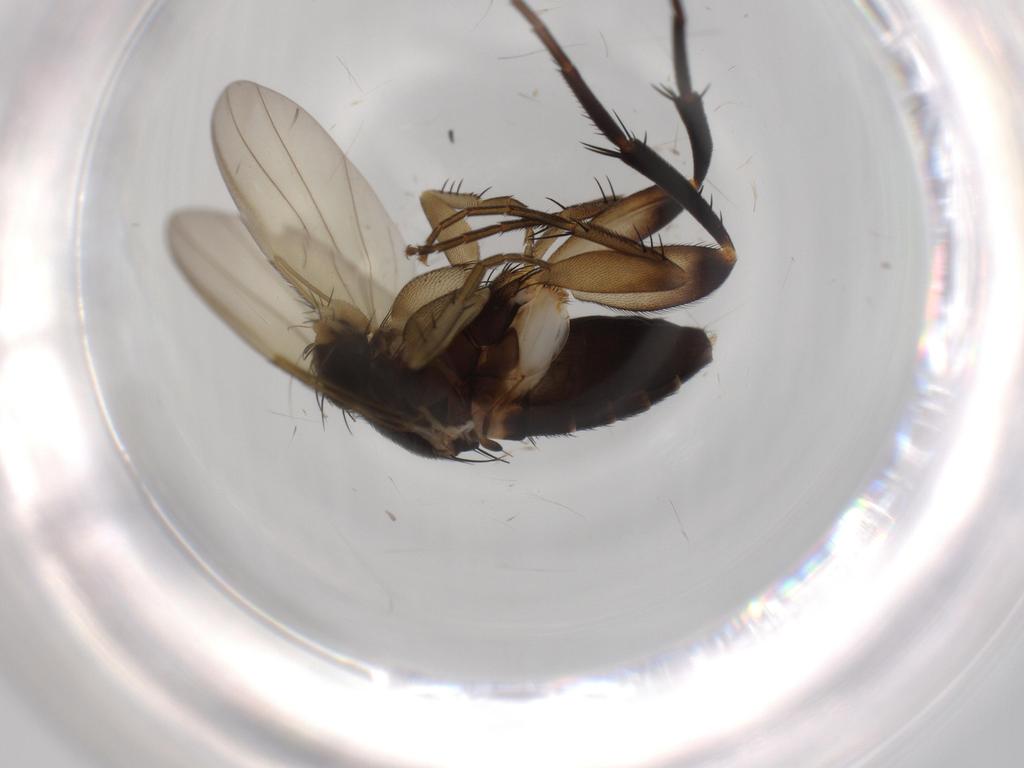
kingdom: Animalia
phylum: Arthropoda
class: Insecta
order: Diptera
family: Phoridae
